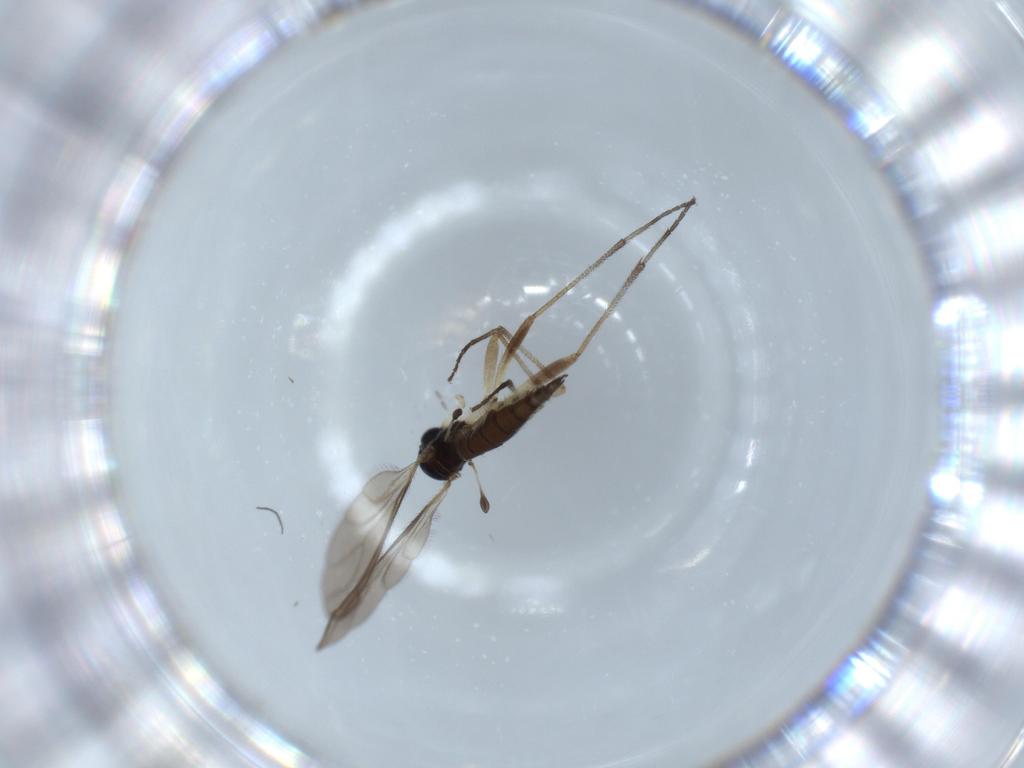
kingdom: Animalia
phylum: Arthropoda
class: Insecta
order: Diptera
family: Sciaridae
